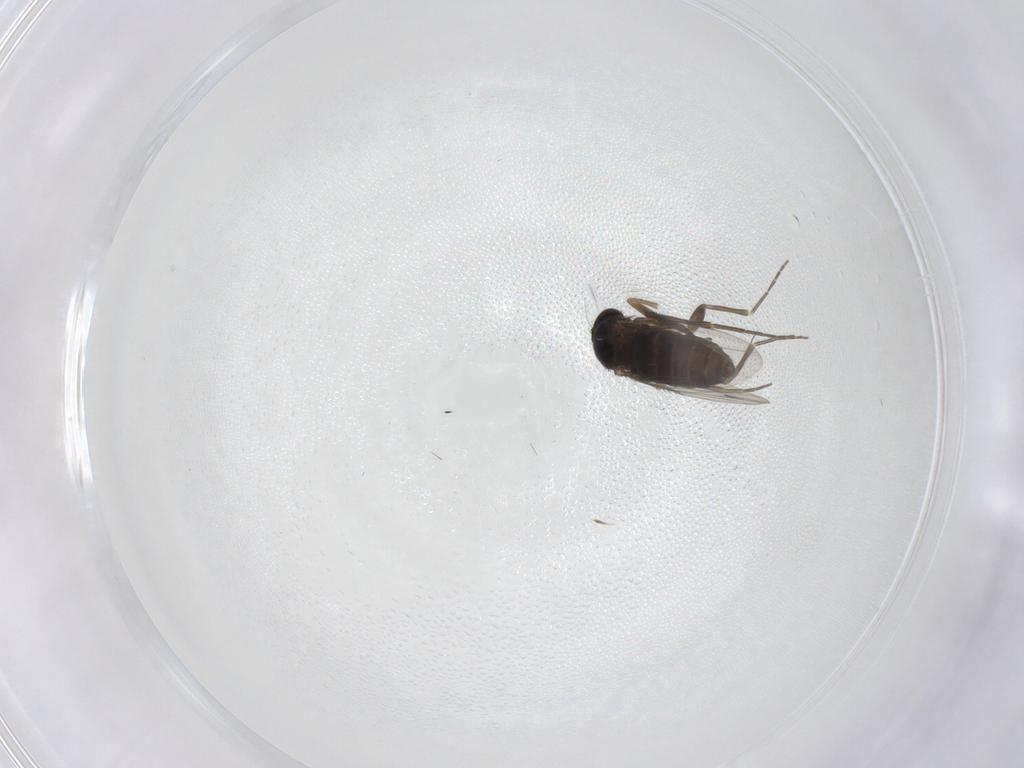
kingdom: Animalia
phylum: Arthropoda
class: Insecta
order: Diptera
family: Phoridae
